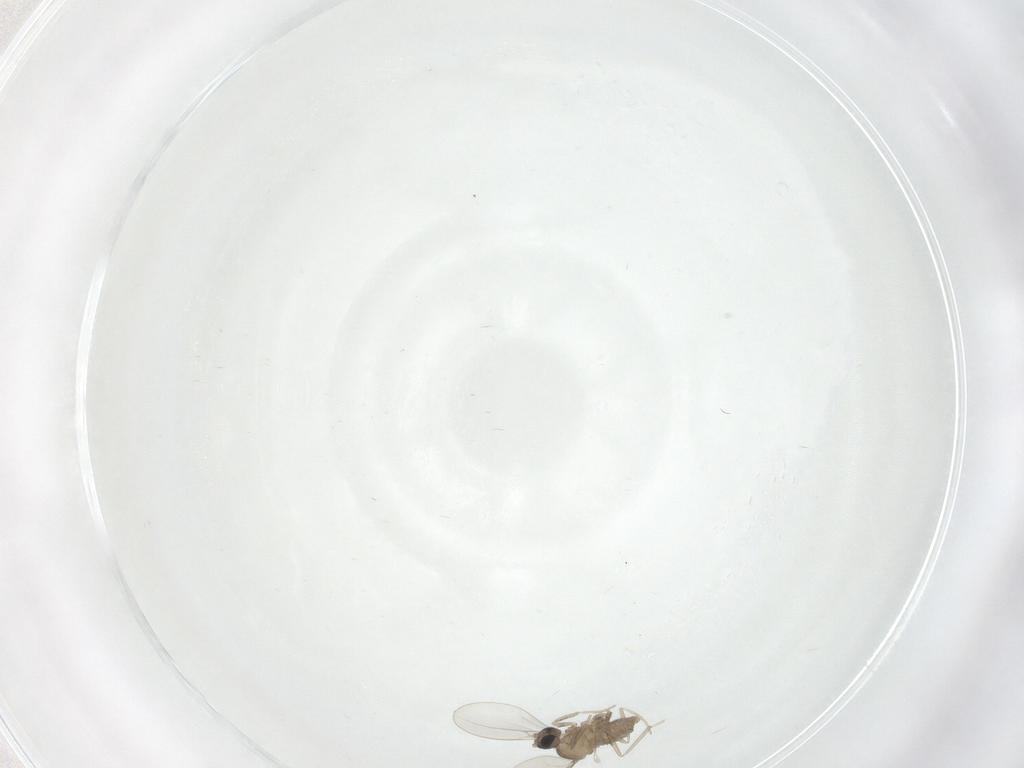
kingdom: Animalia
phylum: Arthropoda
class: Insecta
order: Diptera
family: Cecidomyiidae
